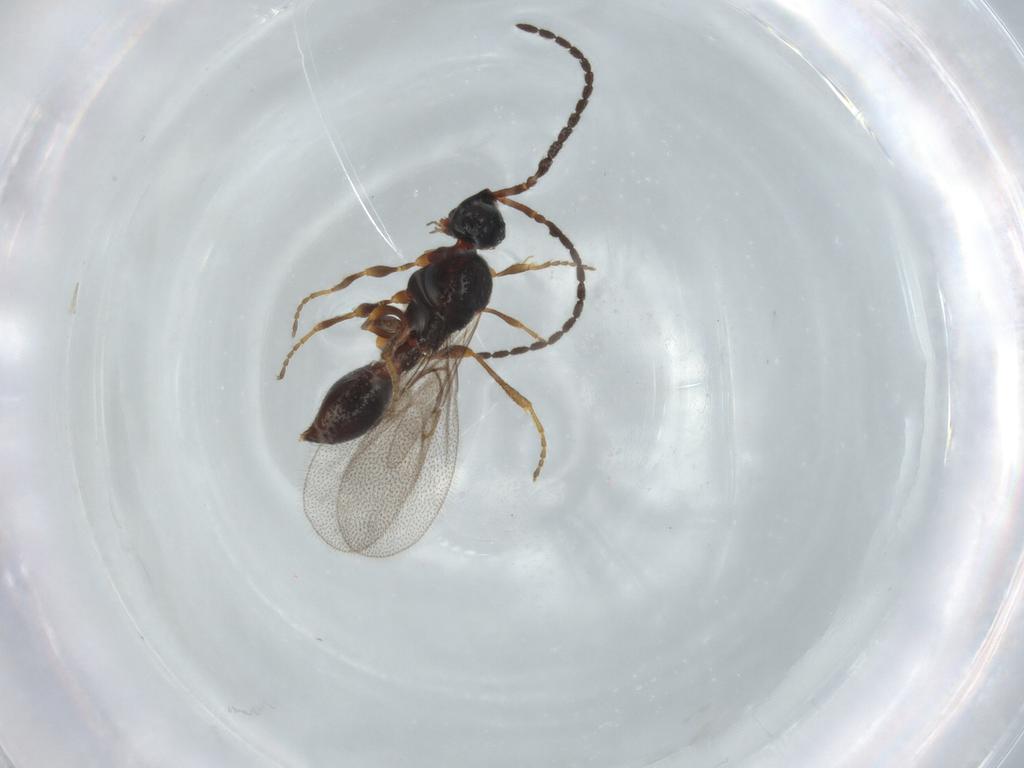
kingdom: Animalia
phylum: Arthropoda
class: Insecta
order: Hymenoptera
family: Diapriidae
